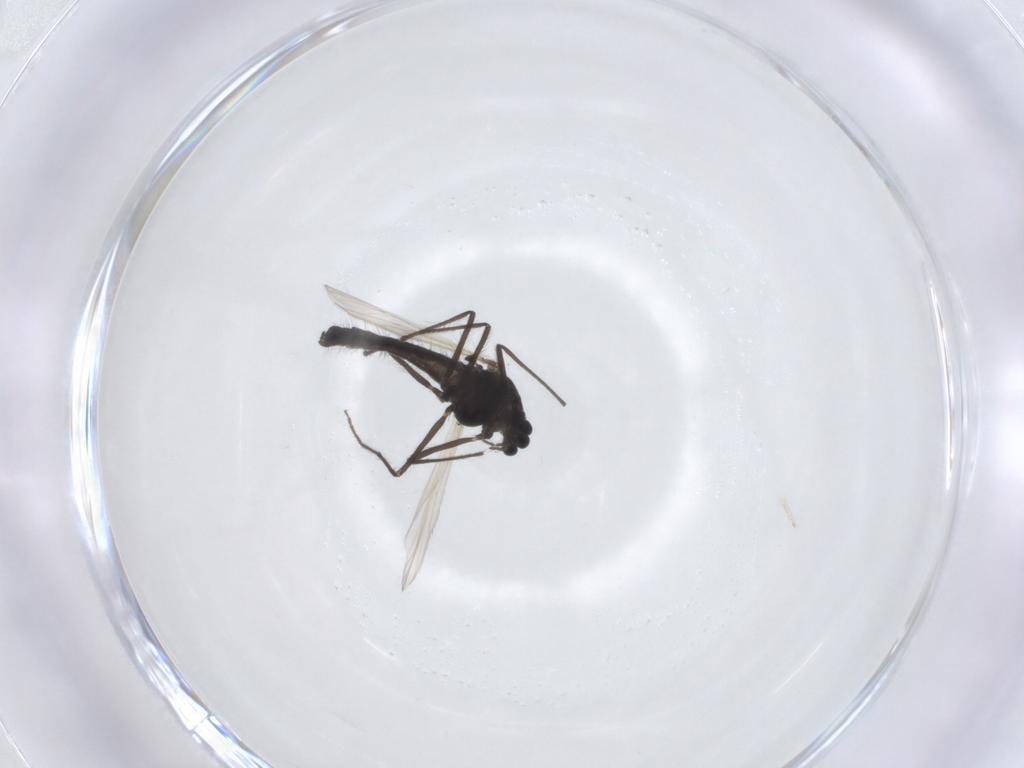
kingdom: Animalia
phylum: Arthropoda
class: Insecta
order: Diptera
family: Chironomidae
